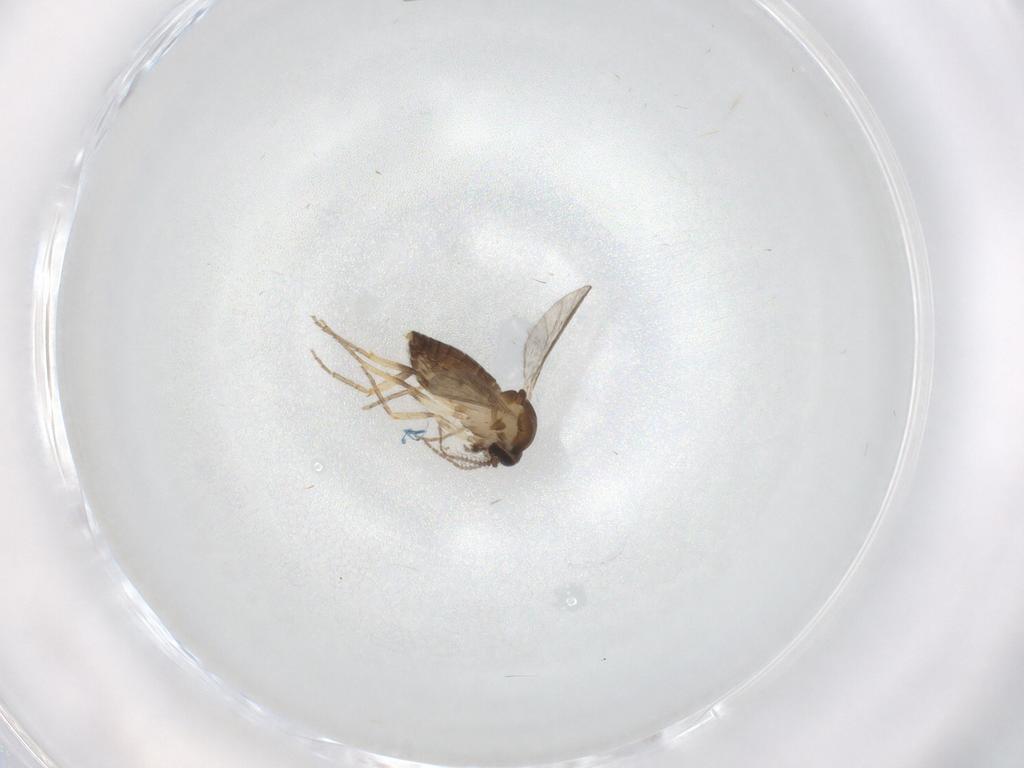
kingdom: Animalia
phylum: Arthropoda
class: Insecta
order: Diptera
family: Ceratopogonidae
